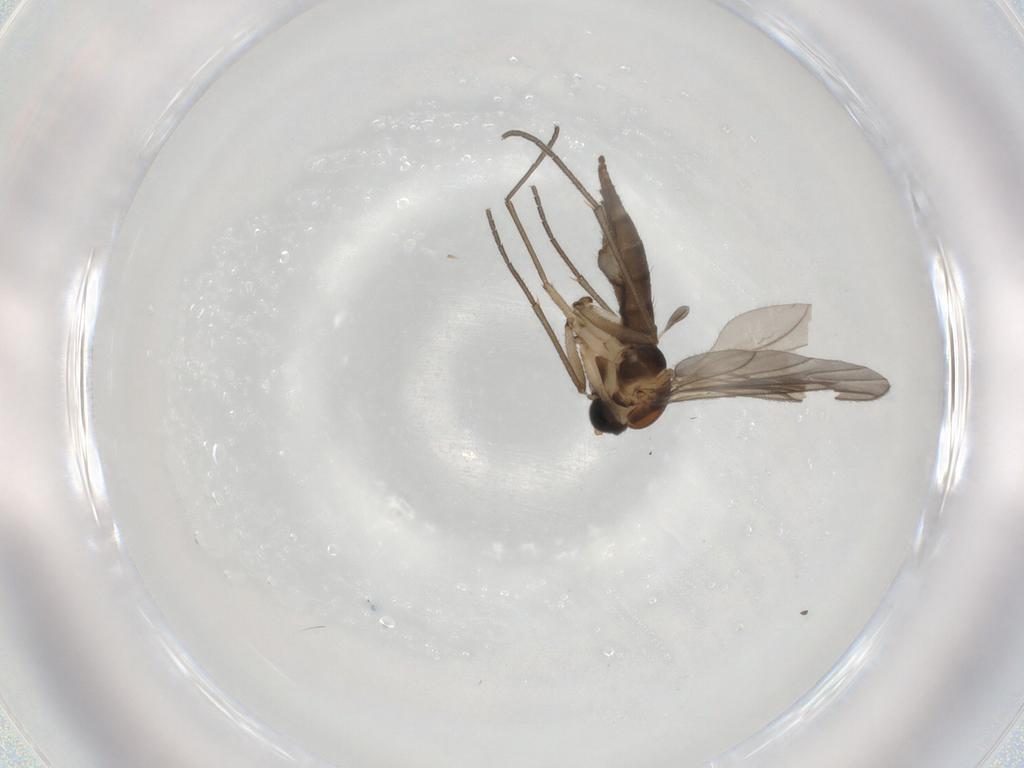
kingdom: Animalia
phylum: Arthropoda
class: Insecta
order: Diptera
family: Sciaridae
